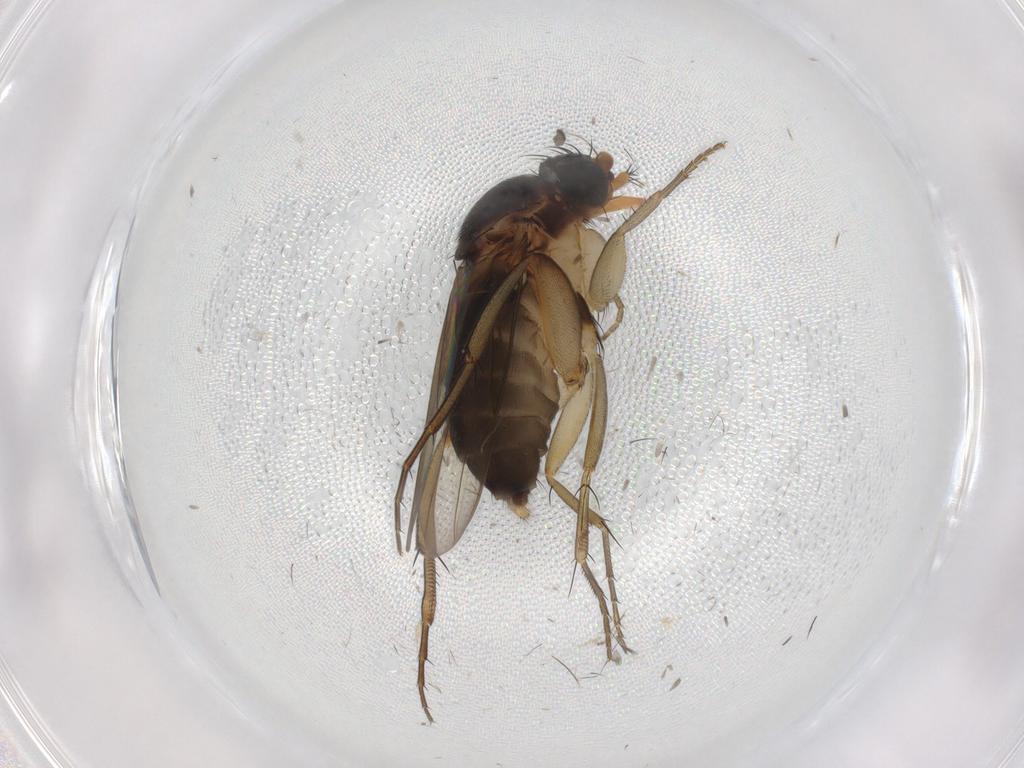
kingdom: Animalia
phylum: Arthropoda
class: Insecta
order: Diptera
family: Phoridae
